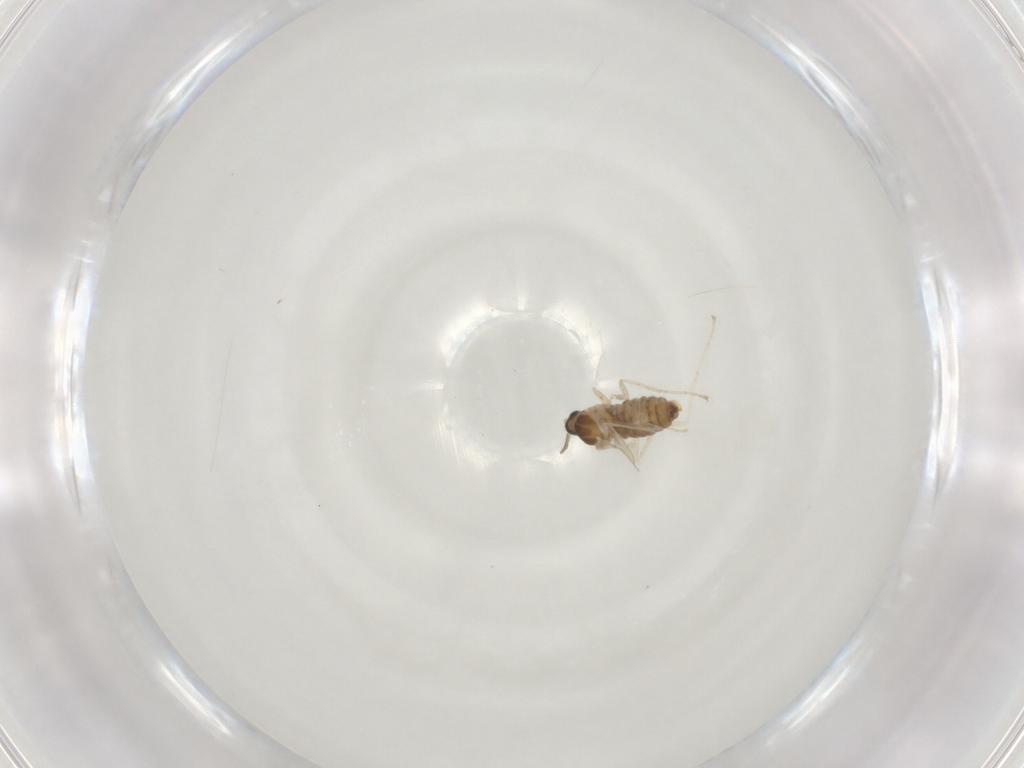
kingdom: Animalia
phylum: Arthropoda
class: Insecta
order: Diptera
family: Cecidomyiidae
